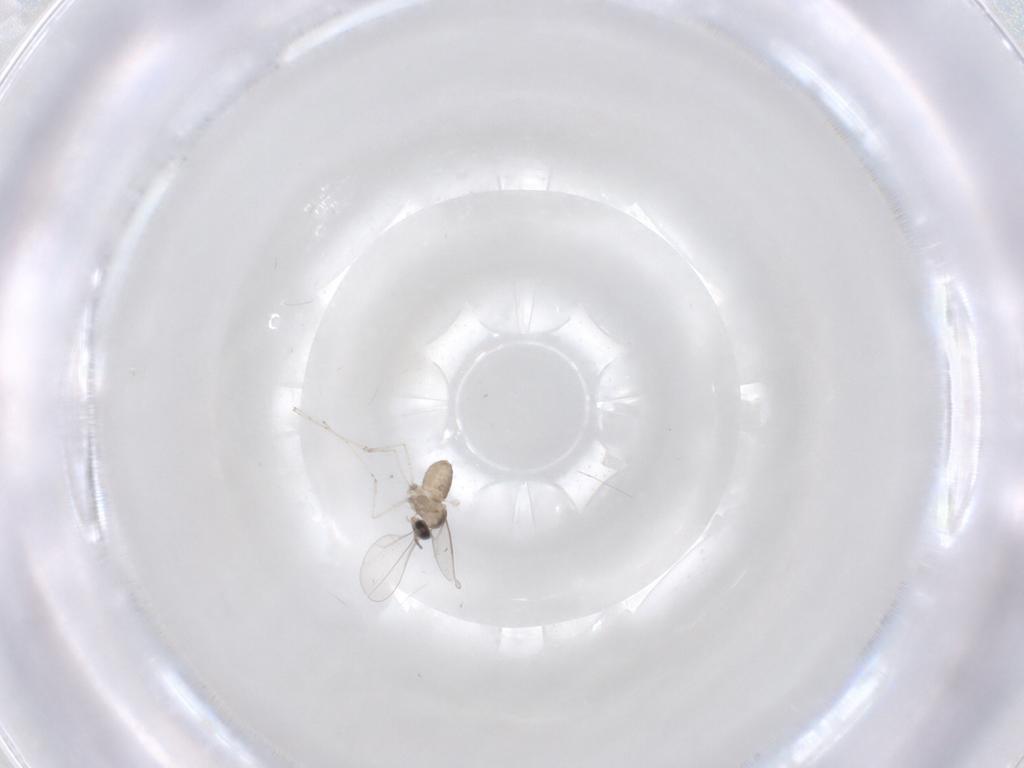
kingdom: Animalia
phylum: Arthropoda
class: Insecta
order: Diptera
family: Cecidomyiidae
